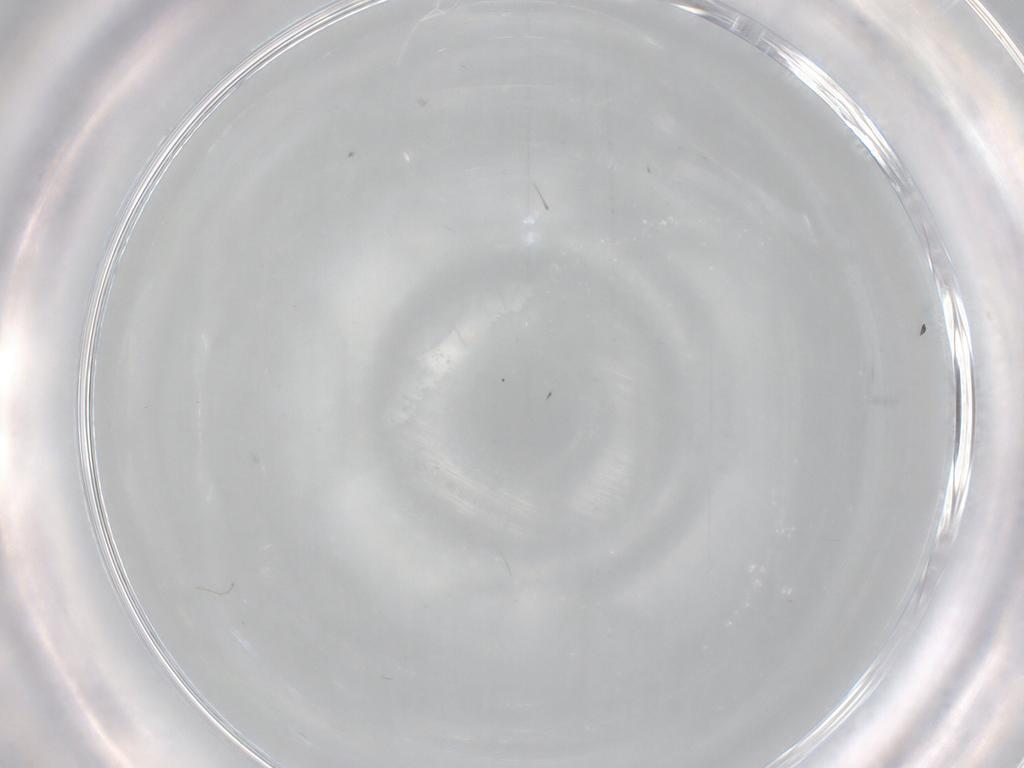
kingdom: Animalia
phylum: Arthropoda
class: Insecta
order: Diptera
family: Cecidomyiidae
